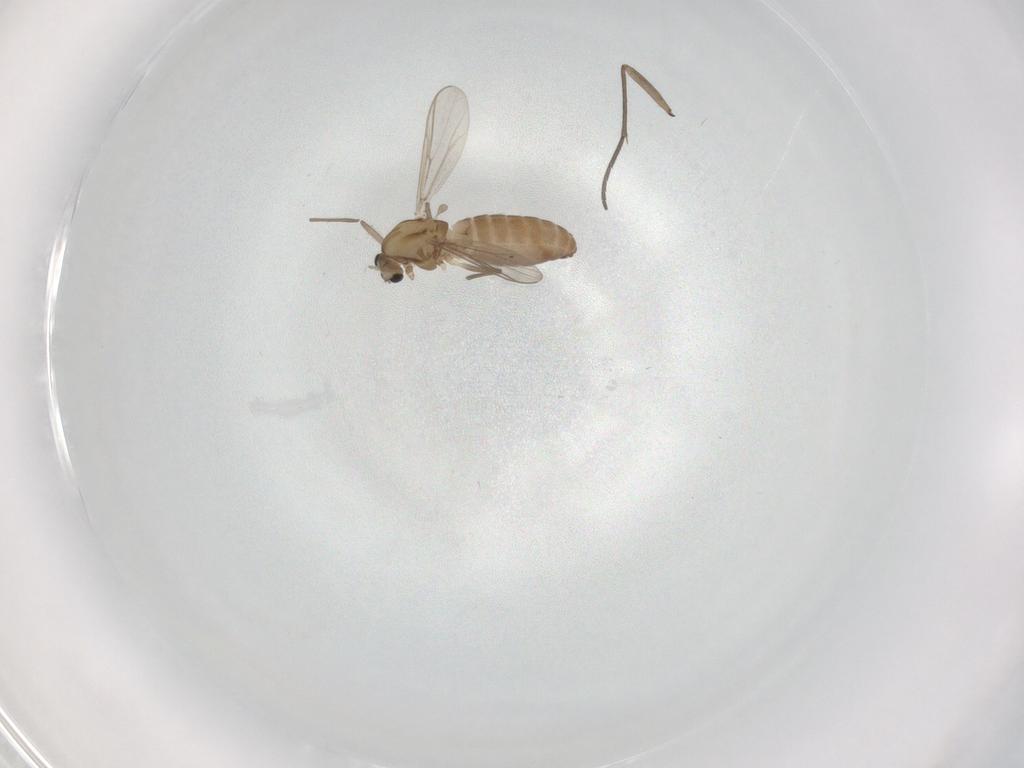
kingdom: Animalia
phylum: Arthropoda
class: Insecta
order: Diptera
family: Chironomidae
